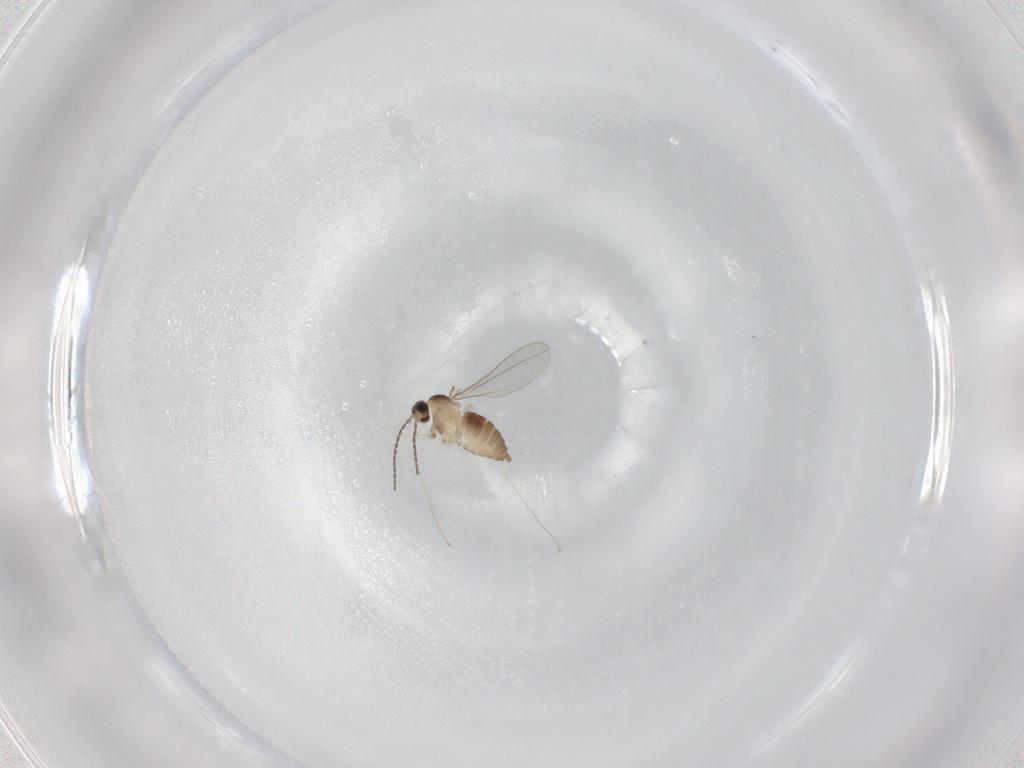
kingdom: Animalia
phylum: Arthropoda
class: Insecta
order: Diptera
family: Cecidomyiidae
